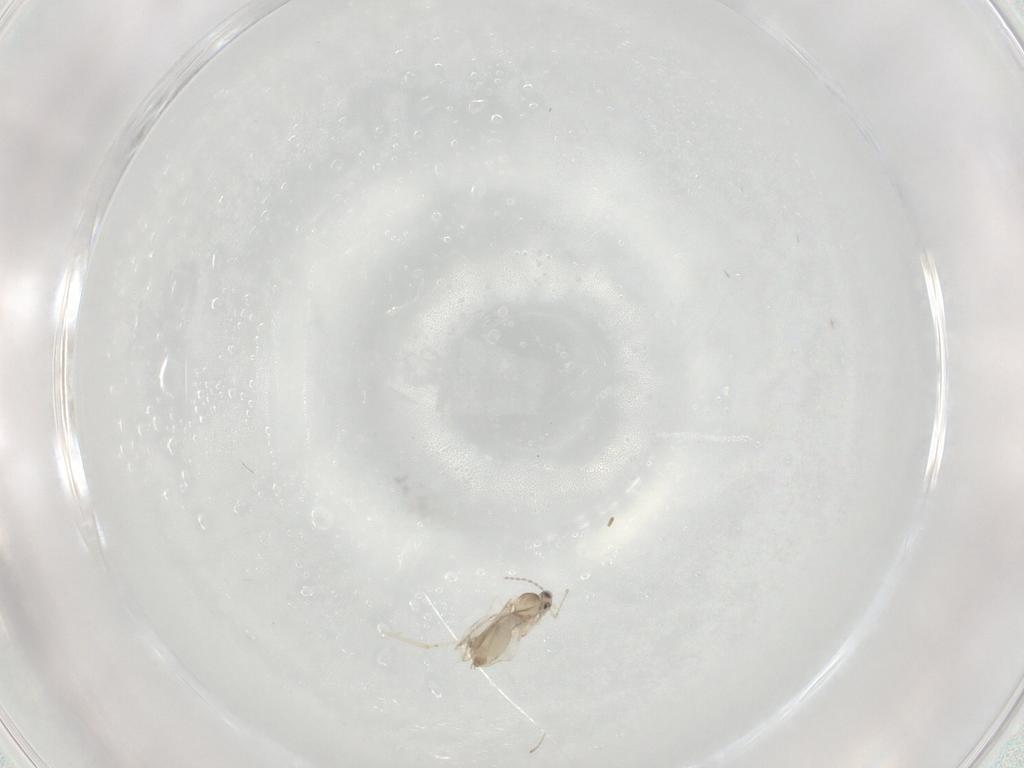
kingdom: Animalia
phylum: Arthropoda
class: Insecta
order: Diptera
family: Cecidomyiidae
